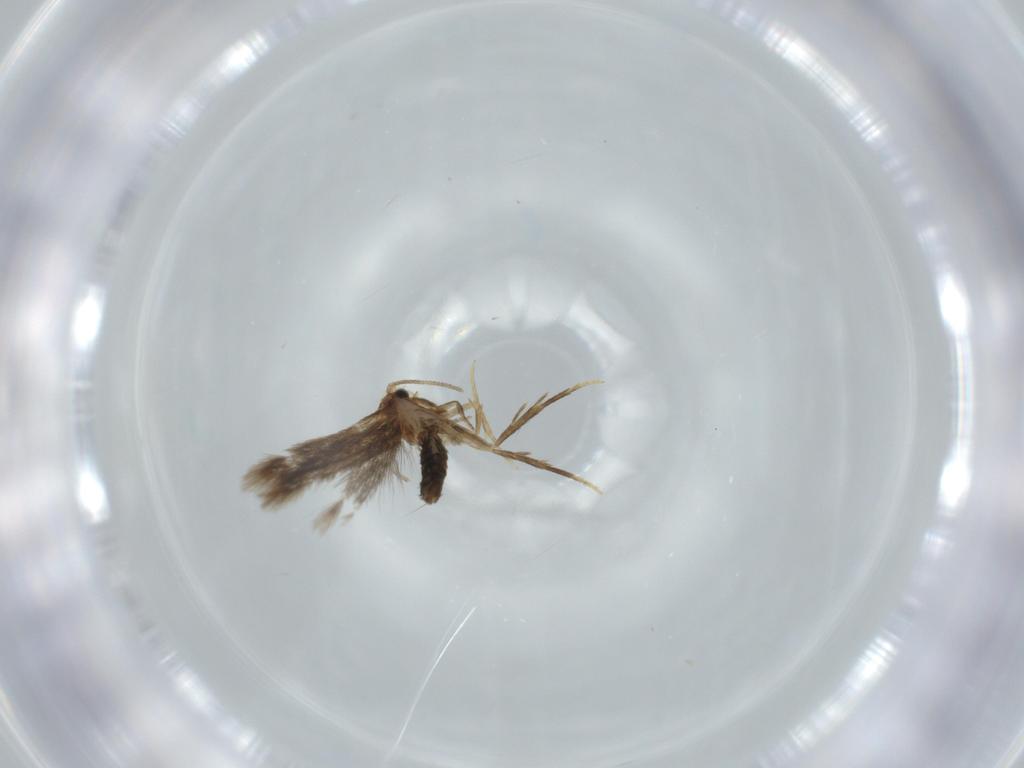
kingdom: Animalia
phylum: Arthropoda
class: Insecta
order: Lepidoptera
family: Nepticulidae
